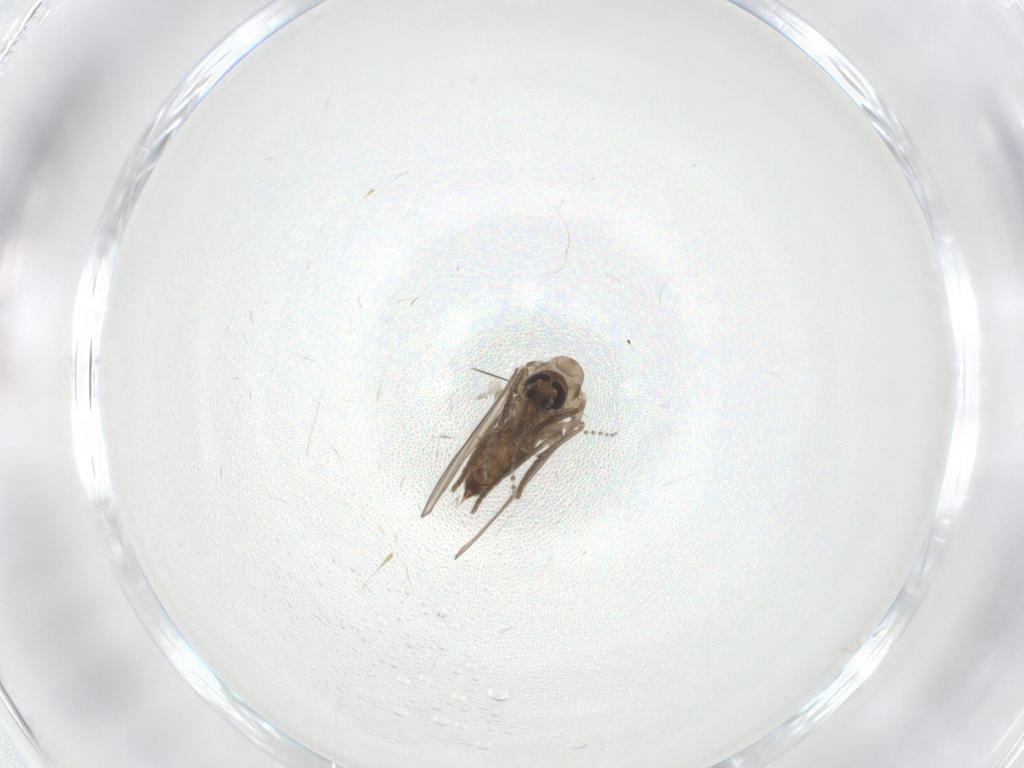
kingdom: Animalia
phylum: Arthropoda
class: Insecta
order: Diptera
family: Psychodidae
